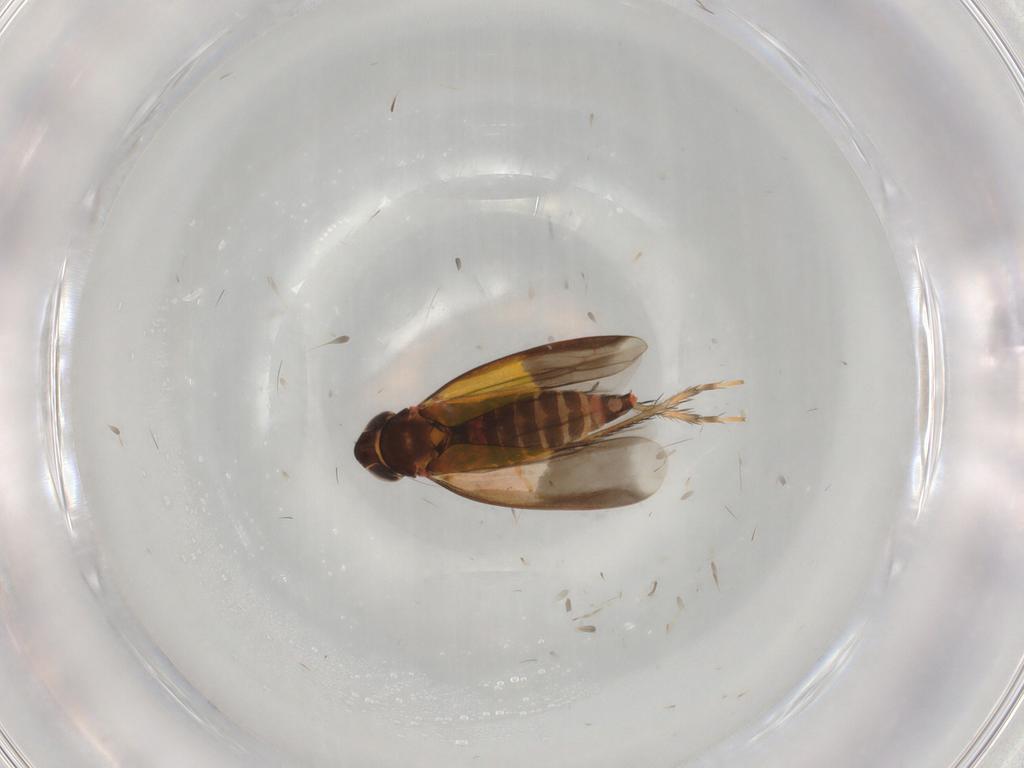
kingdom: Animalia
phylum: Arthropoda
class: Insecta
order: Hemiptera
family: Cicadellidae
